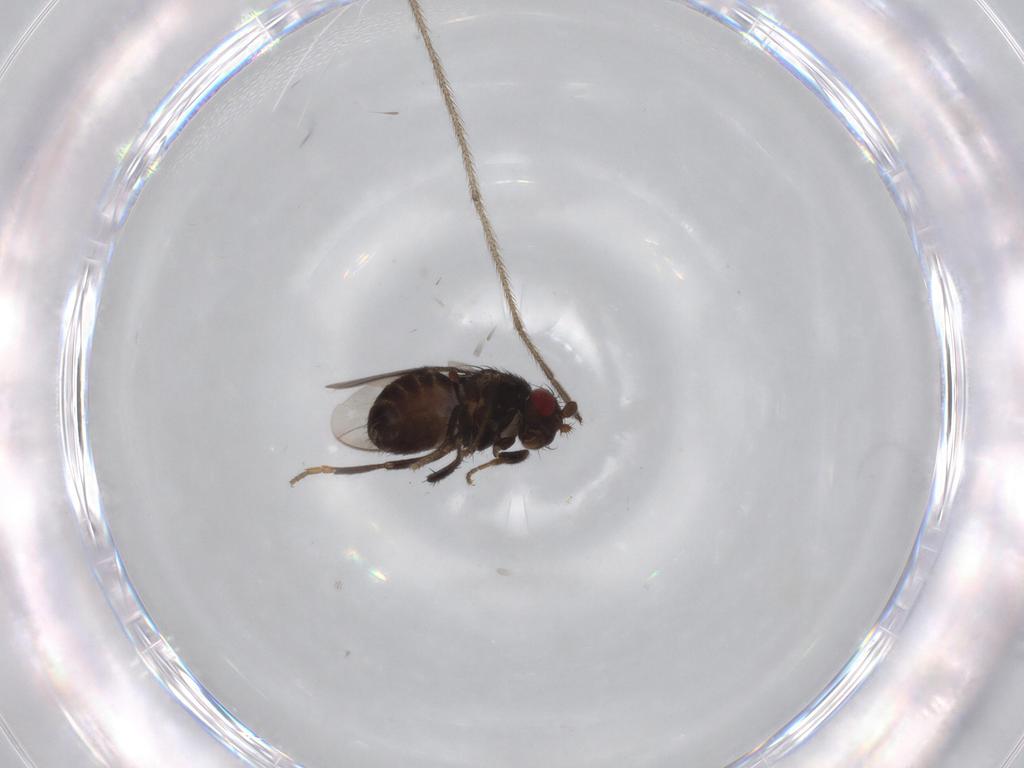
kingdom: Animalia
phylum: Arthropoda
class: Insecta
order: Diptera
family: Limoniidae
